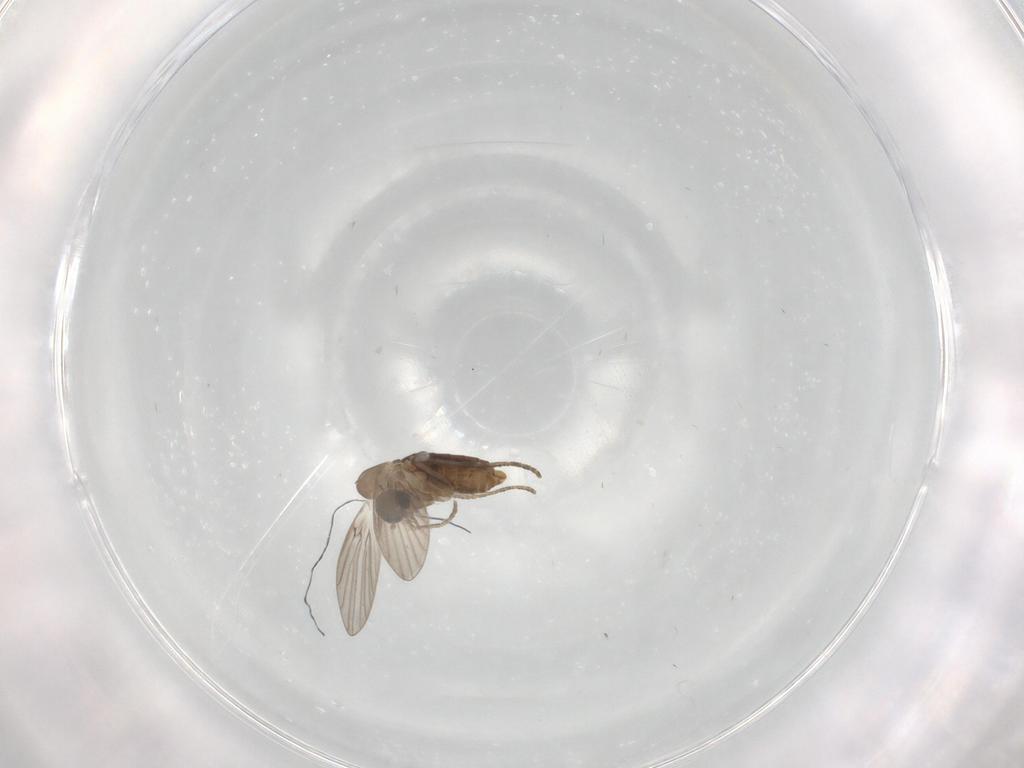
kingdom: Animalia
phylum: Arthropoda
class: Insecta
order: Diptera
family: Psychodidae
